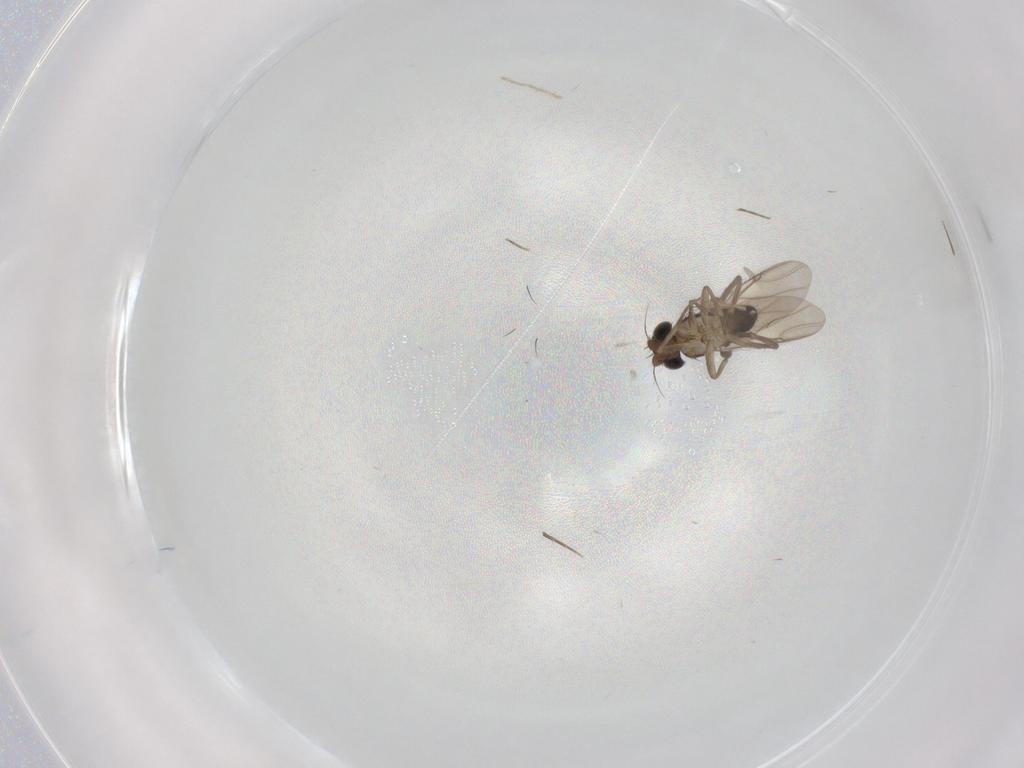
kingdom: Animalia
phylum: Arthropoda
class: Insecta
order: Diptera
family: Phoridae
